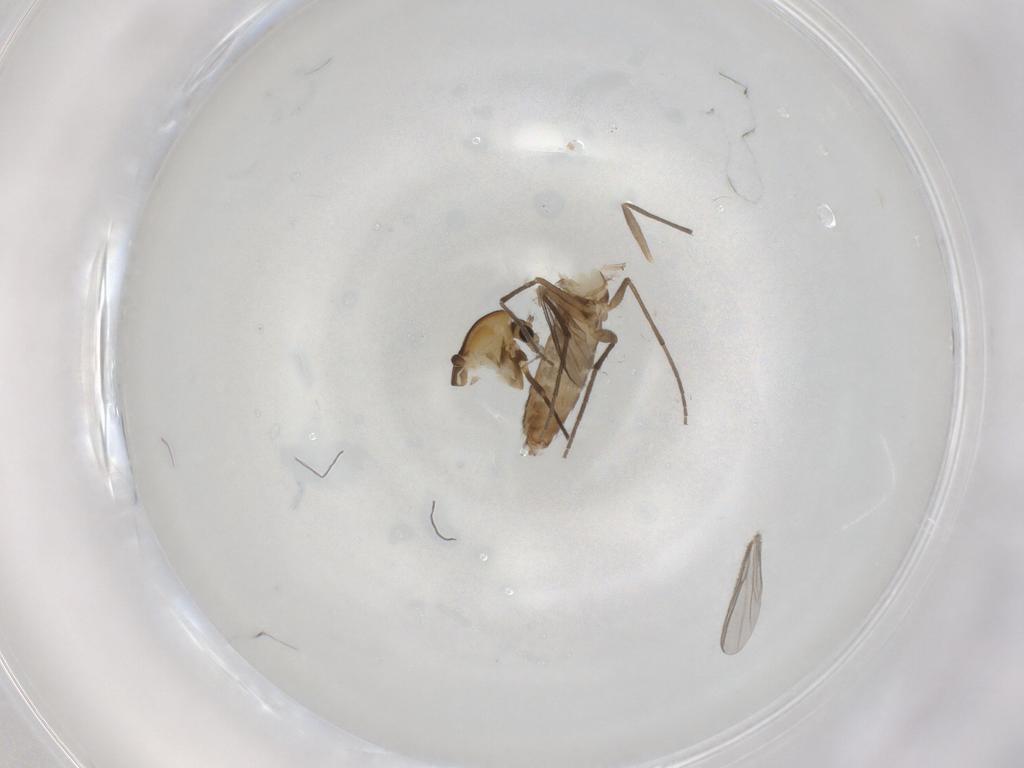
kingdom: Animalia
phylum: Arthropoda
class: Insecta
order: Diptera
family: Chironomidae
